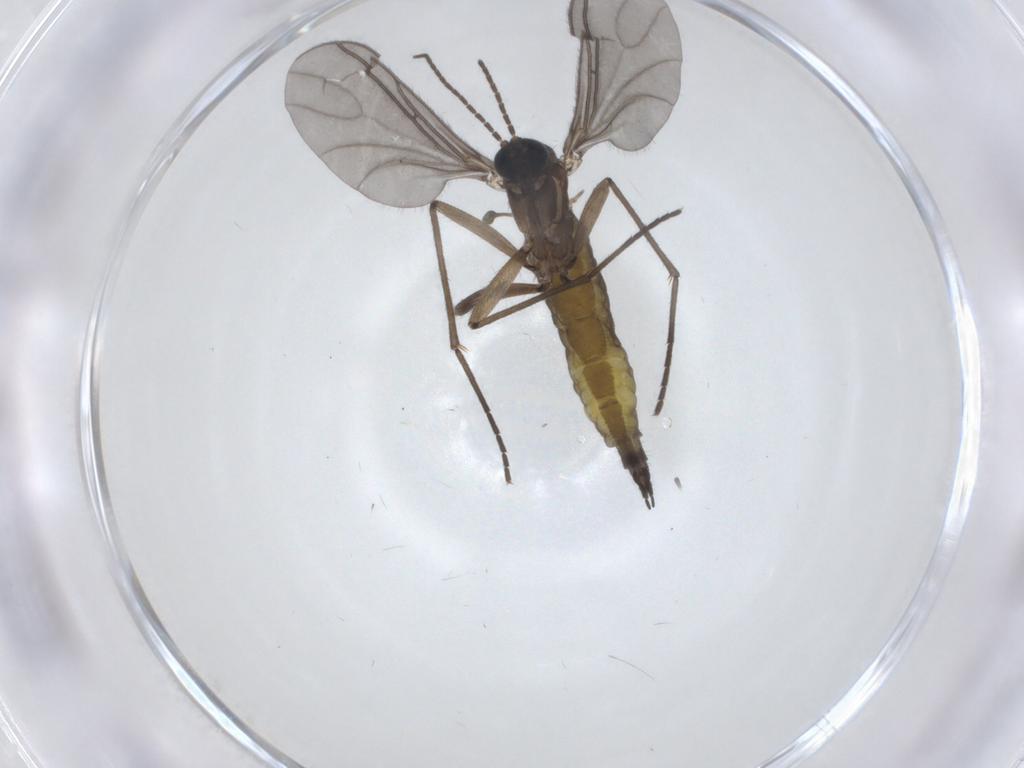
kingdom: Animalia
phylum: Arthropoda
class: Insecta
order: Diptera
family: Sciaridae
